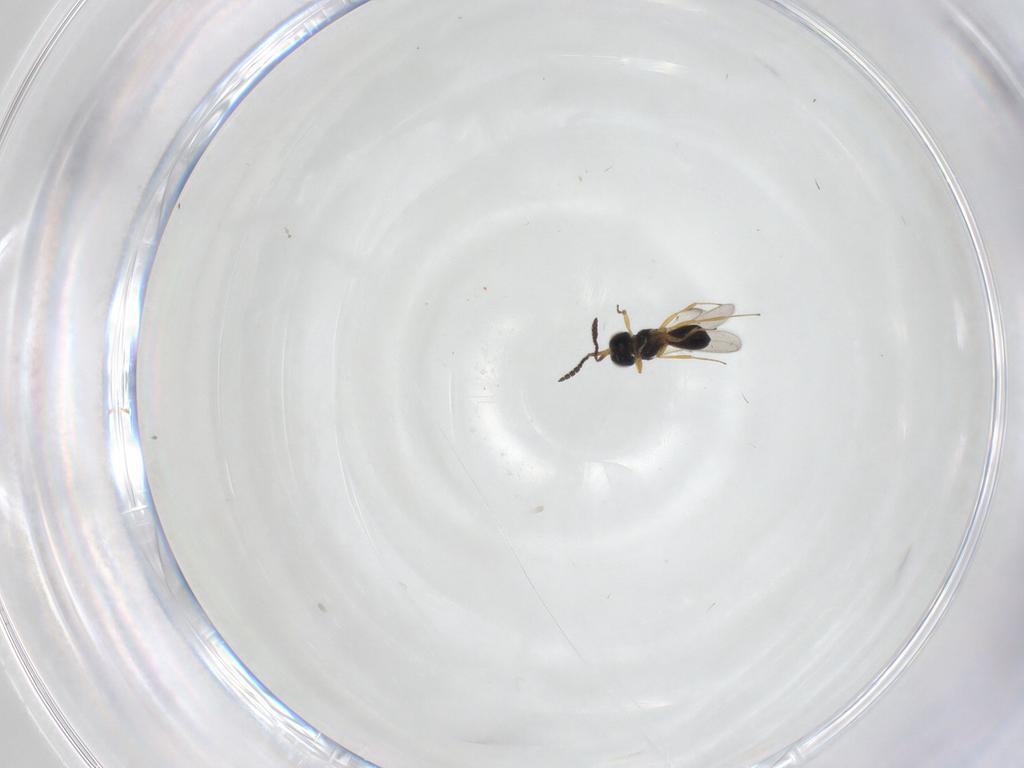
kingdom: Animalia
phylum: Arthropoda
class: Insecta
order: Hymenoptera
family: Scelionidae
